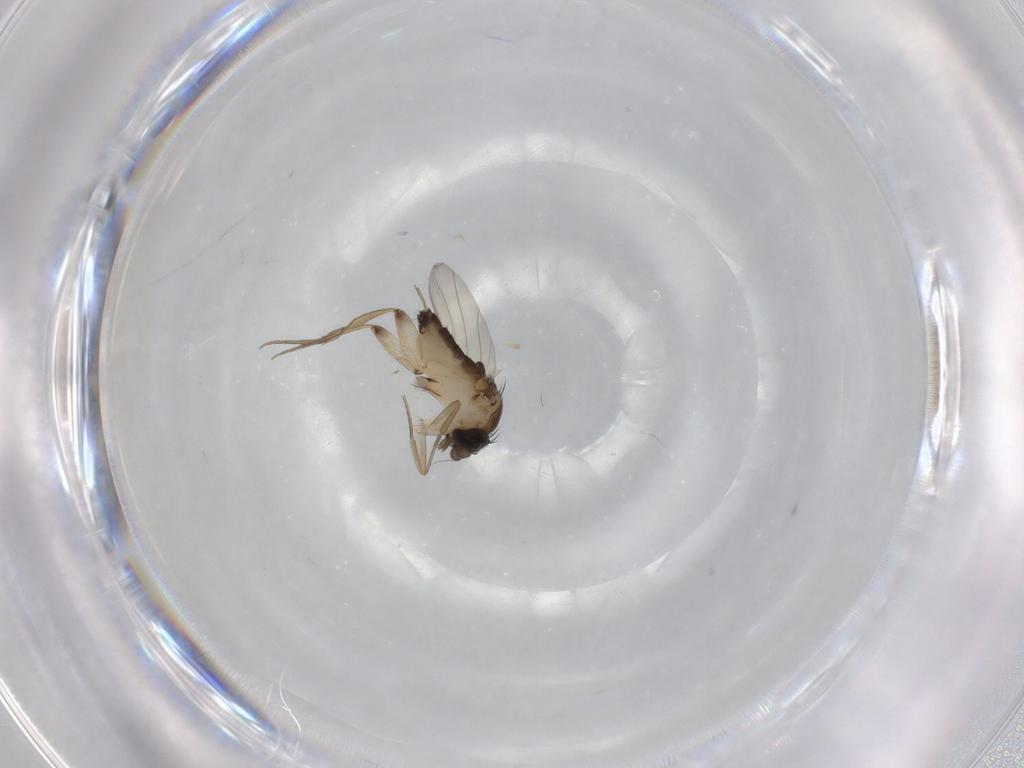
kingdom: Animalia
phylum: Arthropoda
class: Insecta
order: Diptera
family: Phoridae
